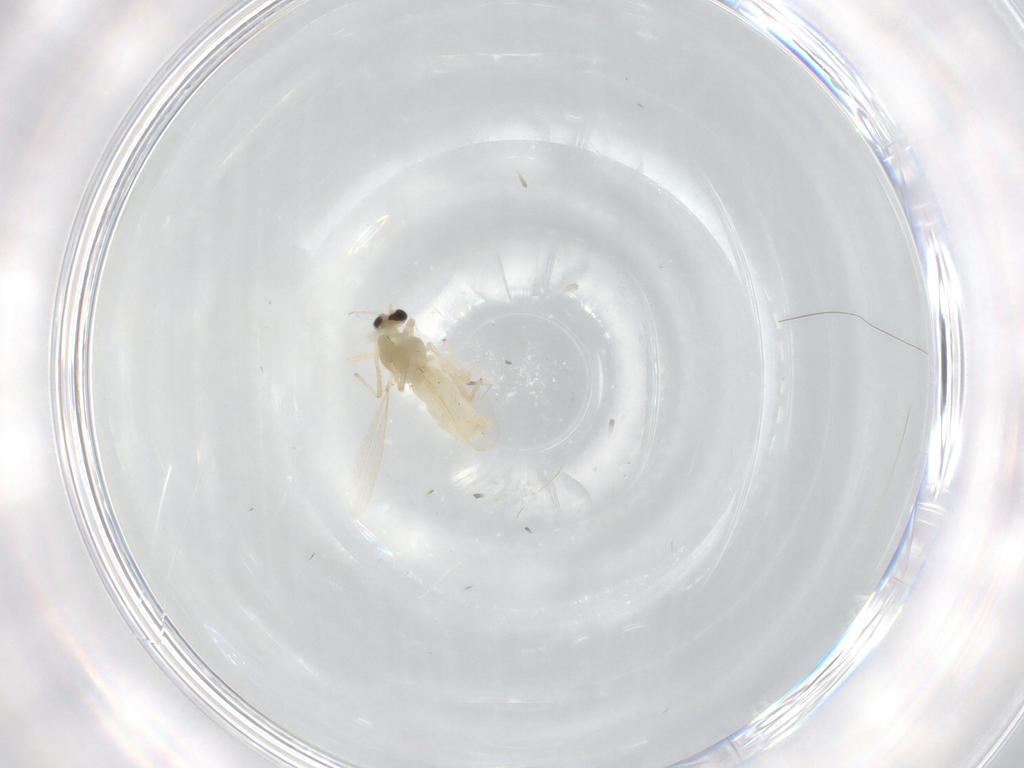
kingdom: Animalia
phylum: Arthropoda
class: Insecta
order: Diptera
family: Chironomidae
